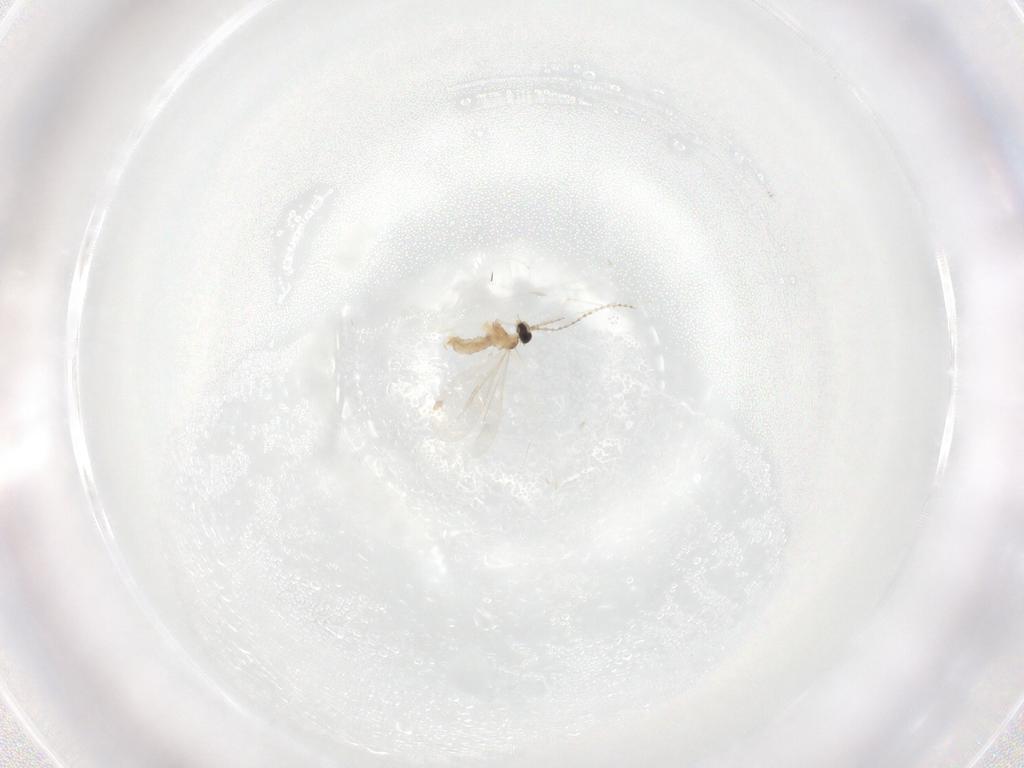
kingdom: Animalia
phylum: Arthropoda
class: Insecta
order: Diptera
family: Cecidomyiidae
